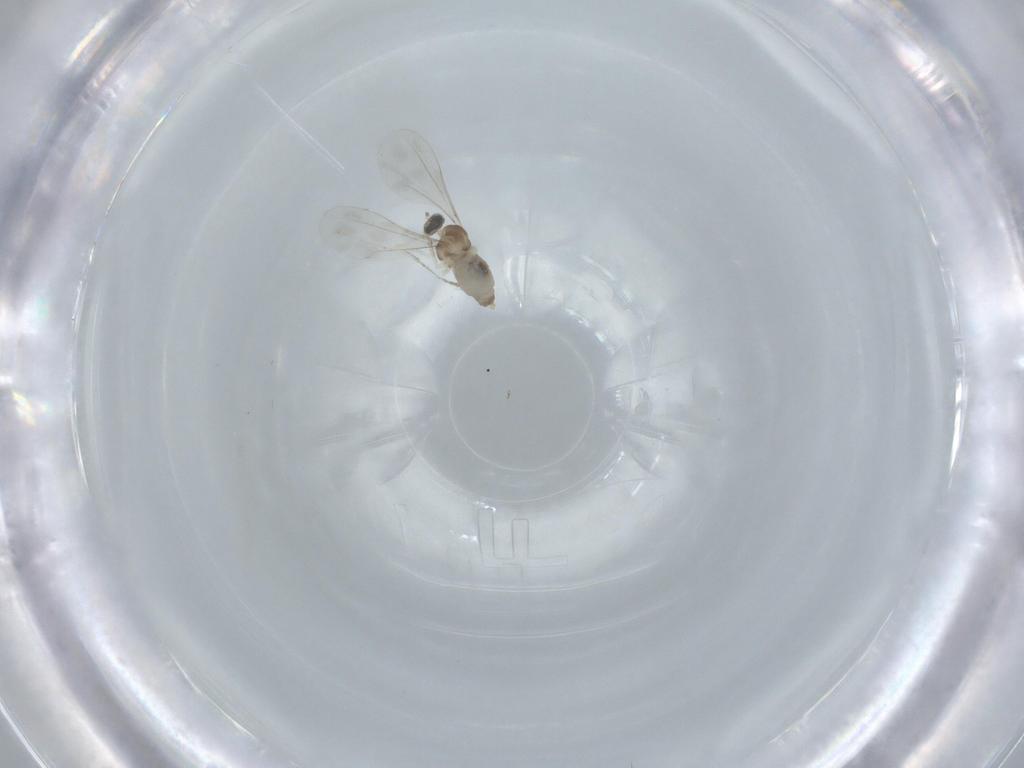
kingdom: Animalia
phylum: Arthropoda
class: Insecta
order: Diptera
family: Cecidomyiidae
